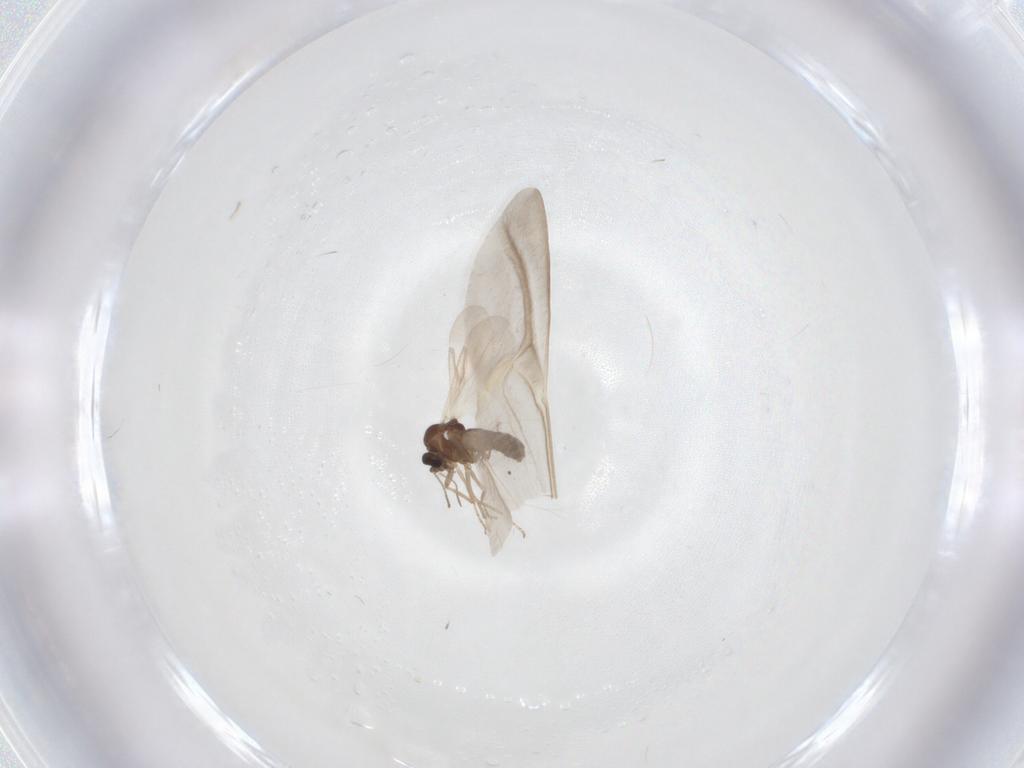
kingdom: Animalia
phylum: Arthropoda
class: Insecta
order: Diptera
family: Ceratopogonidae
